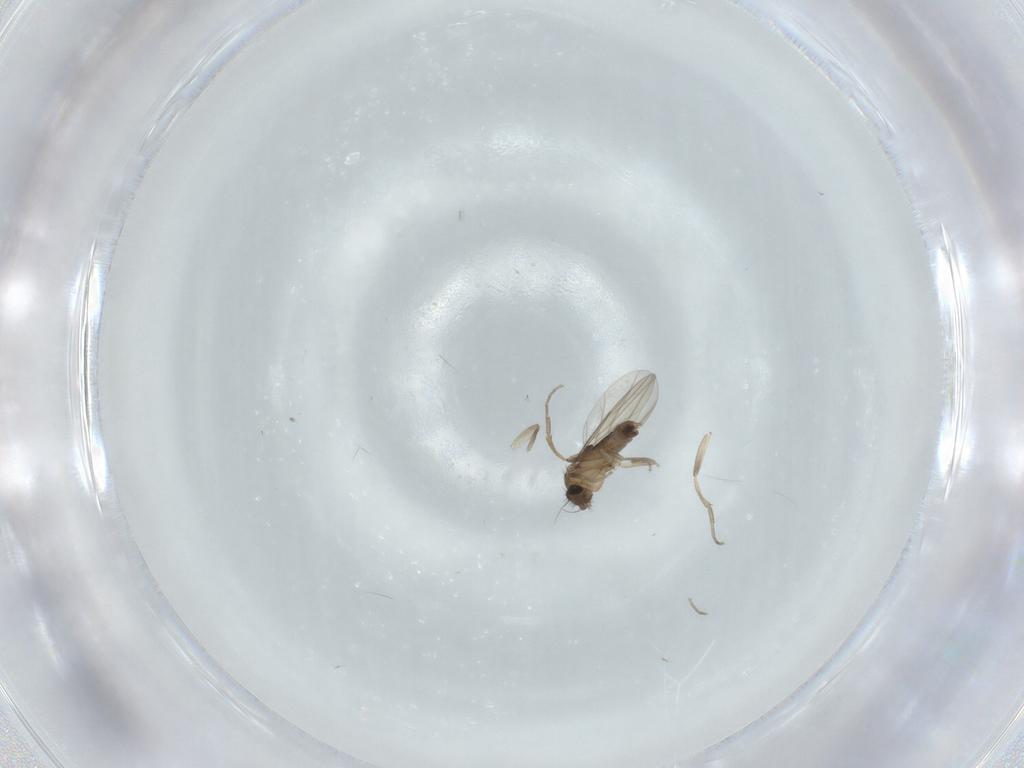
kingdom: Animalia
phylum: Arthropoda
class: Insecta
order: Diptera
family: Phoridae
